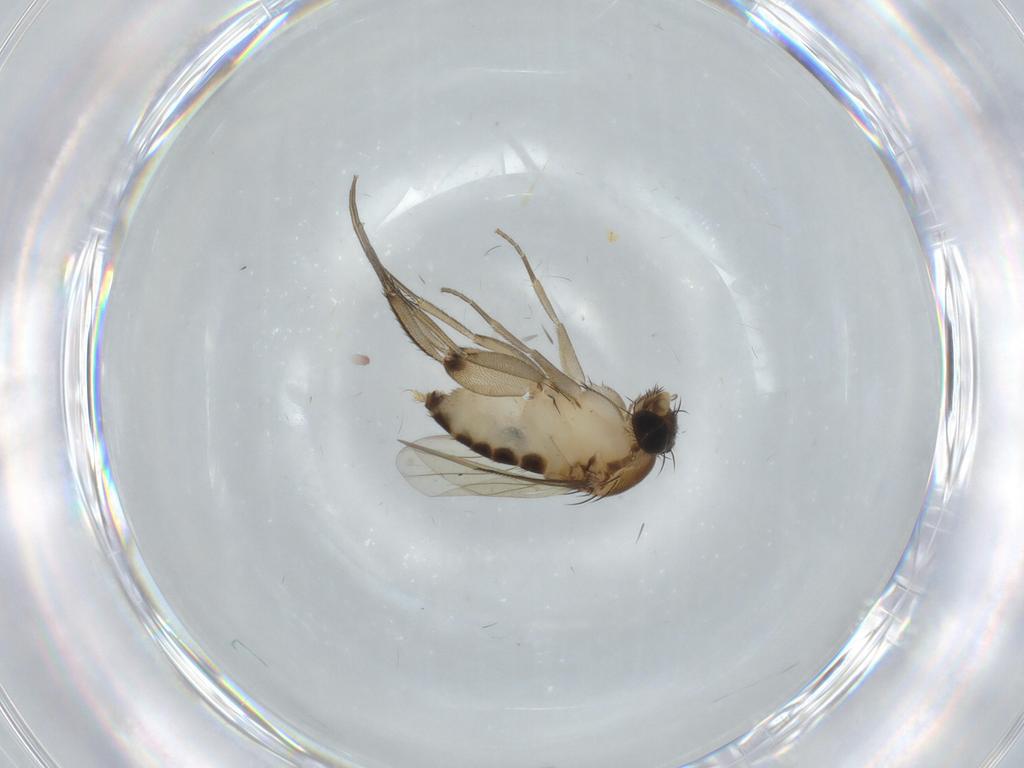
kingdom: Animalia
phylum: Arthropoda
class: Insecta
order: Diptera
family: Phoridae
